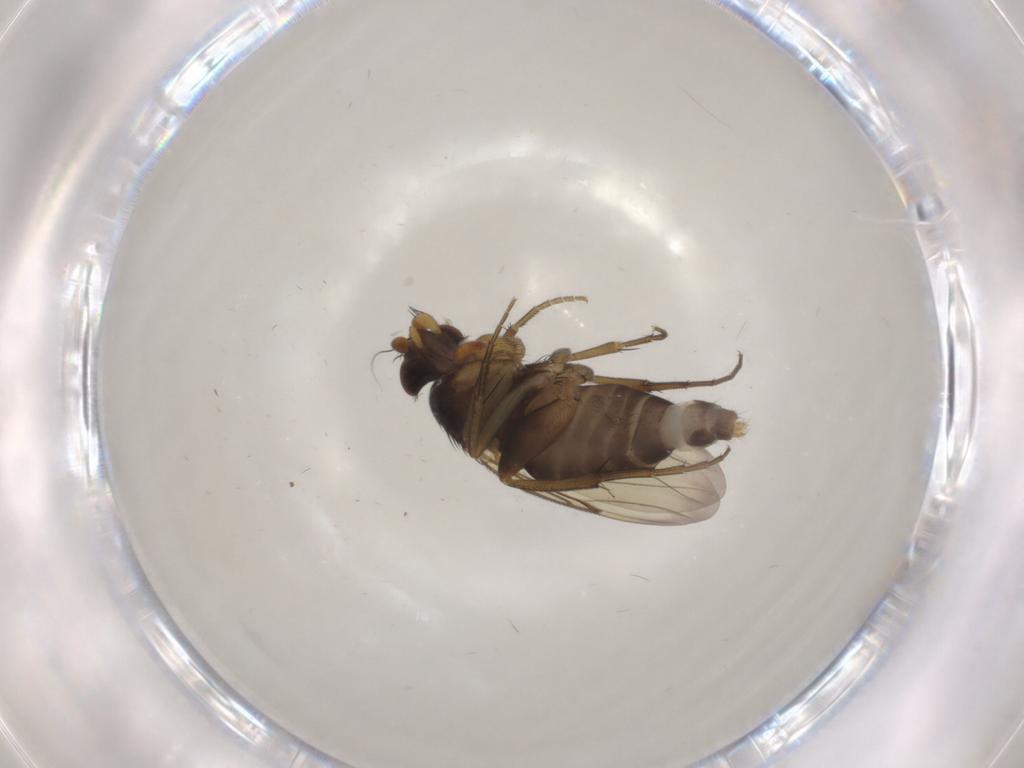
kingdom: Animalia
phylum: Arthropoda
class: Insecta
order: Diptera
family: Phoridae
